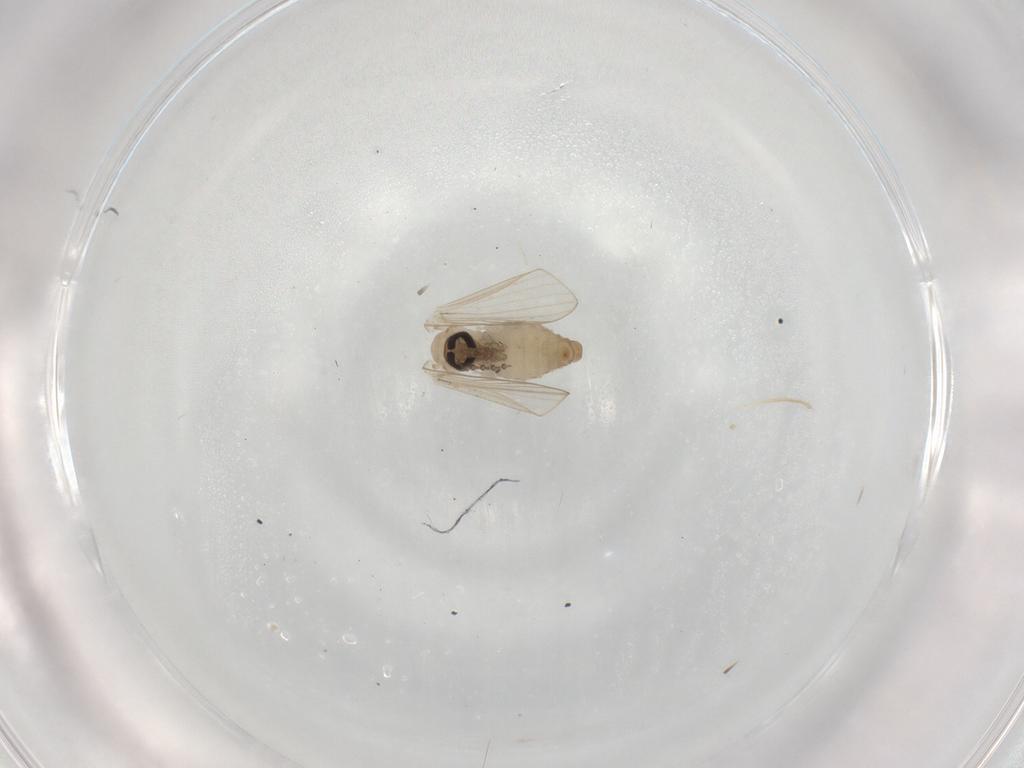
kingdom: Animalia
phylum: Arthropoda
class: Insecta
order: Diptera
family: Psychodidae
